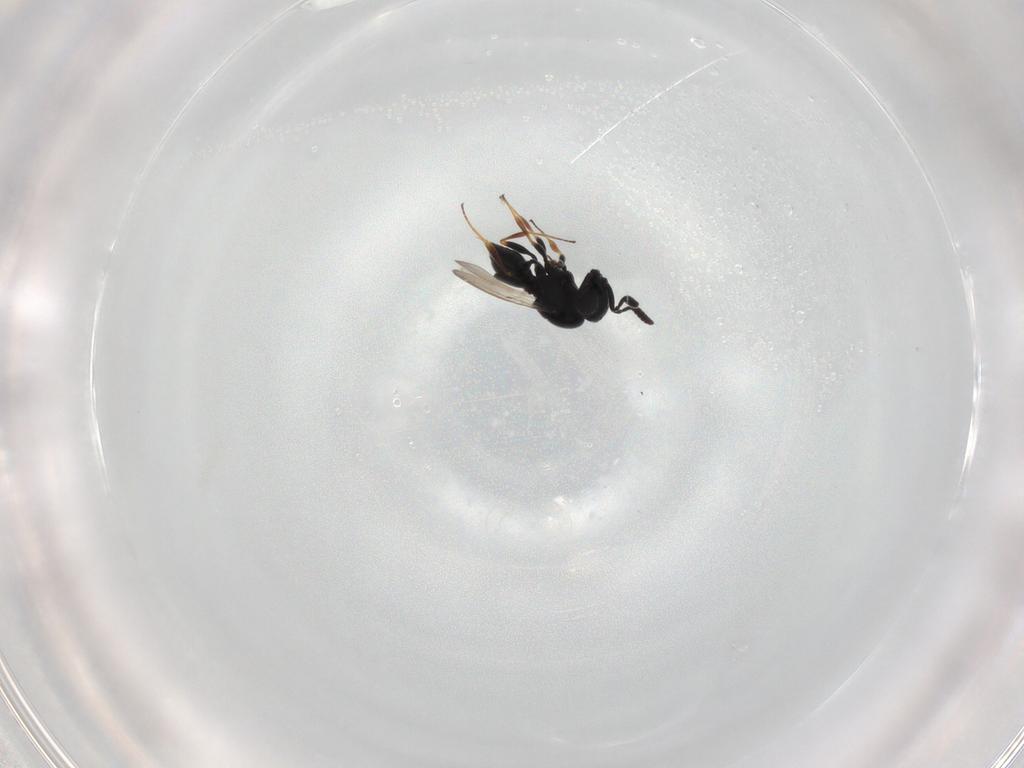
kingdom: Animalia
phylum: Arthropoda
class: Insecta
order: Hymenoptera
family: Scelionidae
